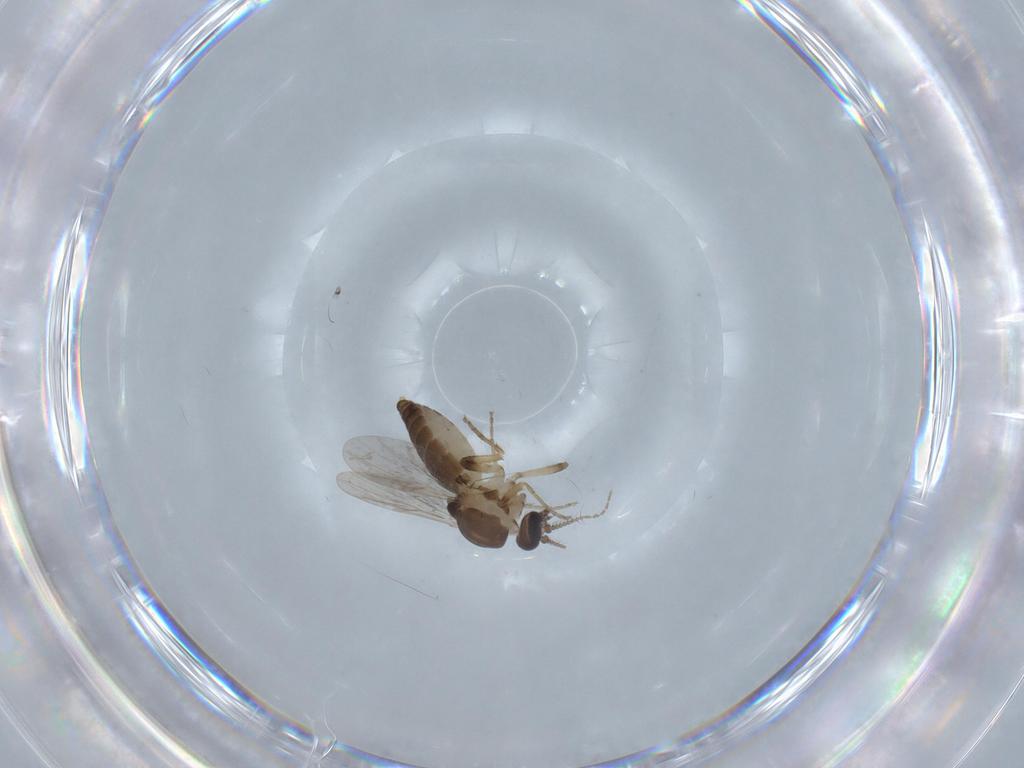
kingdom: Animalia
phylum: Arthropoda
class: Insecta
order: Diptera
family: Ceratopogonidae
